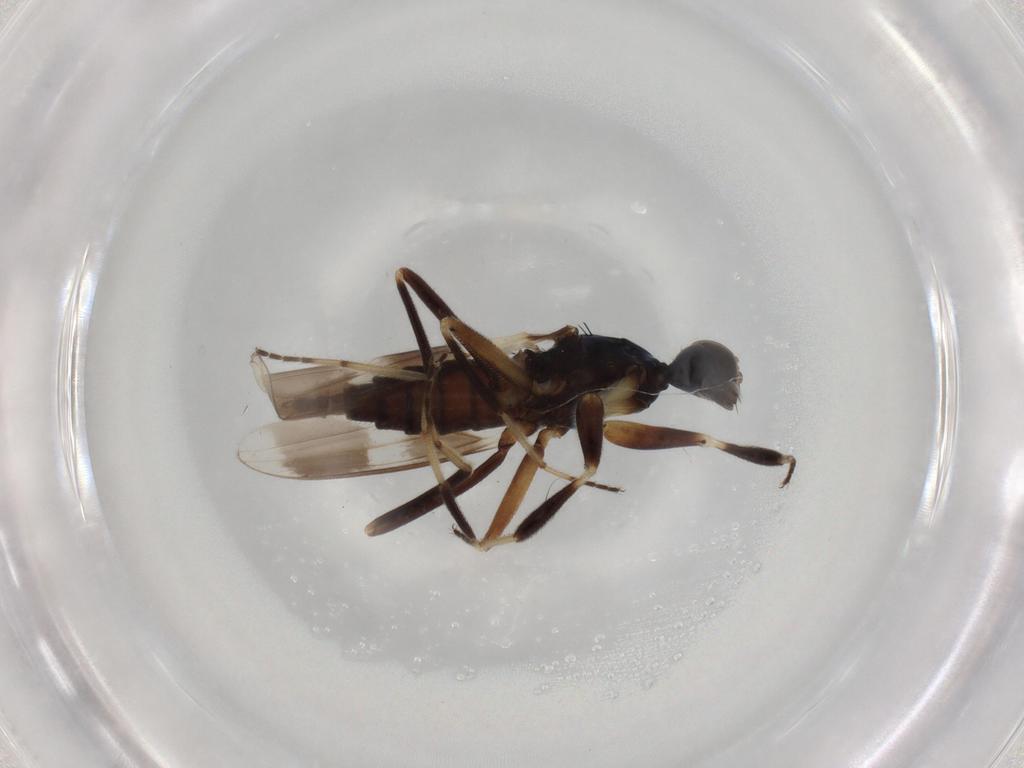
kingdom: Animalia
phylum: Arthropoda
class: Insecta
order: Diptera
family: Hybotidae
